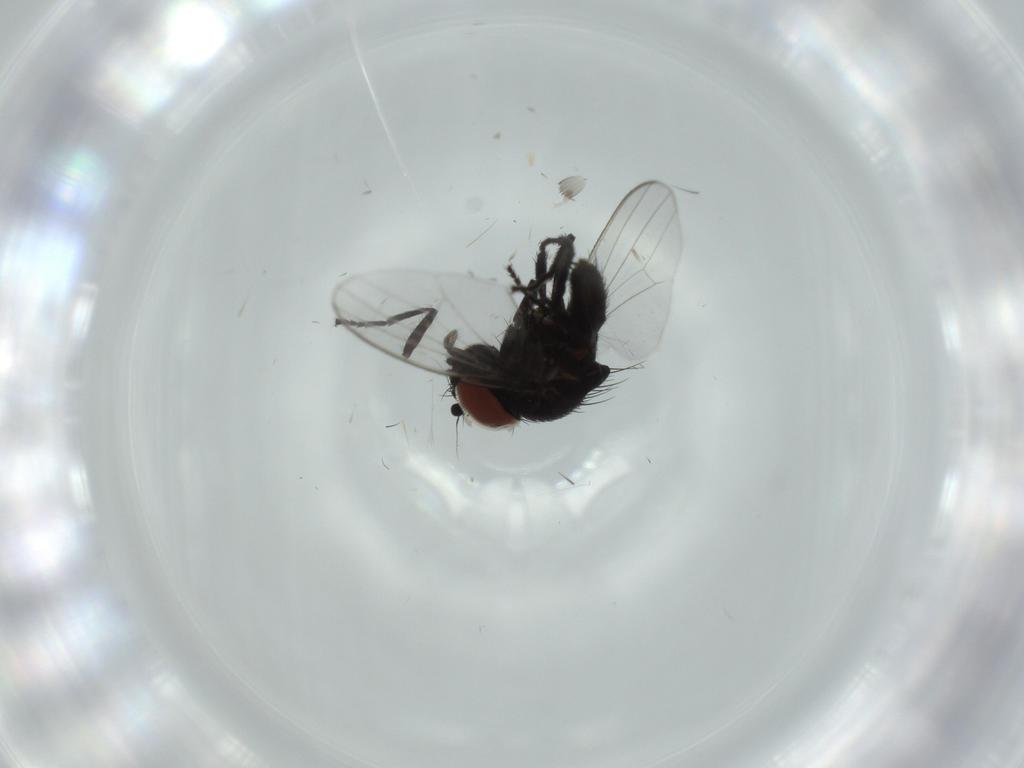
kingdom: Animalia
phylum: Arthropoda
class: Insecta
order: Diptera
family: Milichiidae
